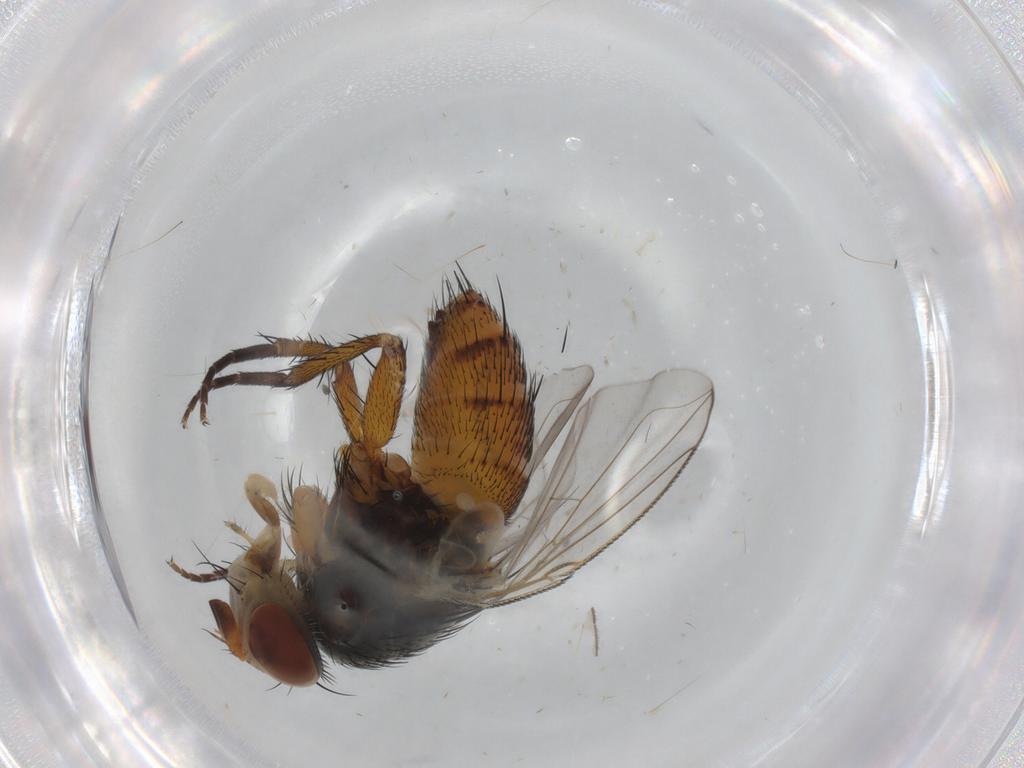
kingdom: Animalia
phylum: Arthropoda
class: Insecta
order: Diptera
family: Tachinidae
